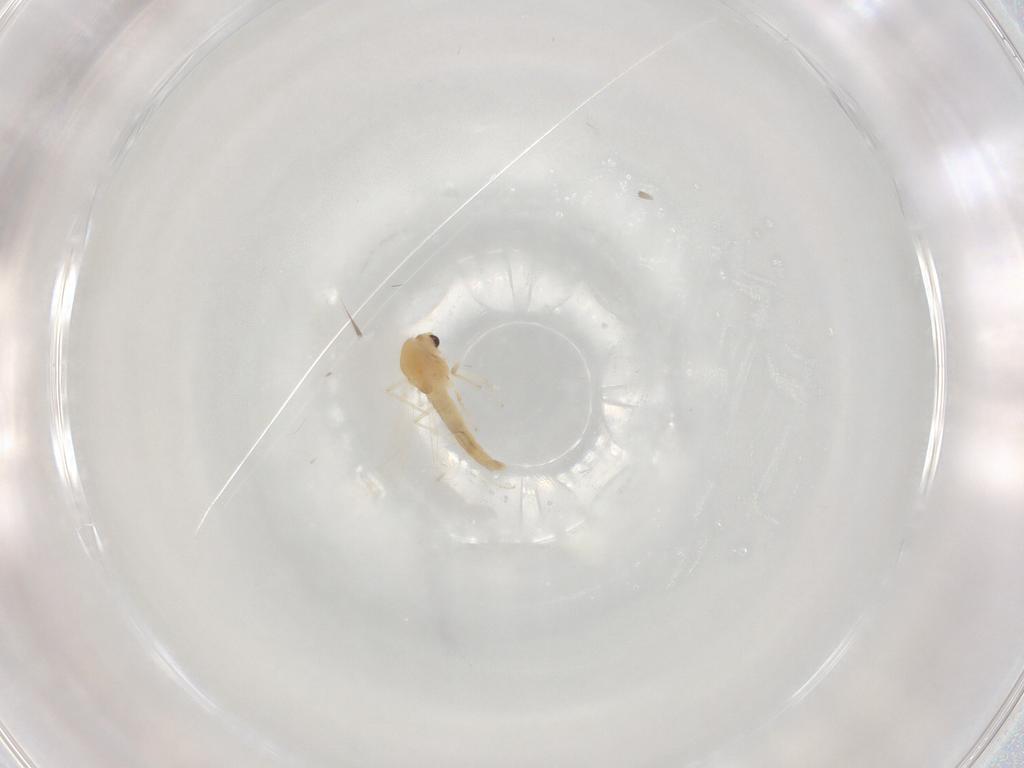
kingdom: Animalia
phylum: Arthropoda
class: Insecta
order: Diptera
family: Chironomidae
